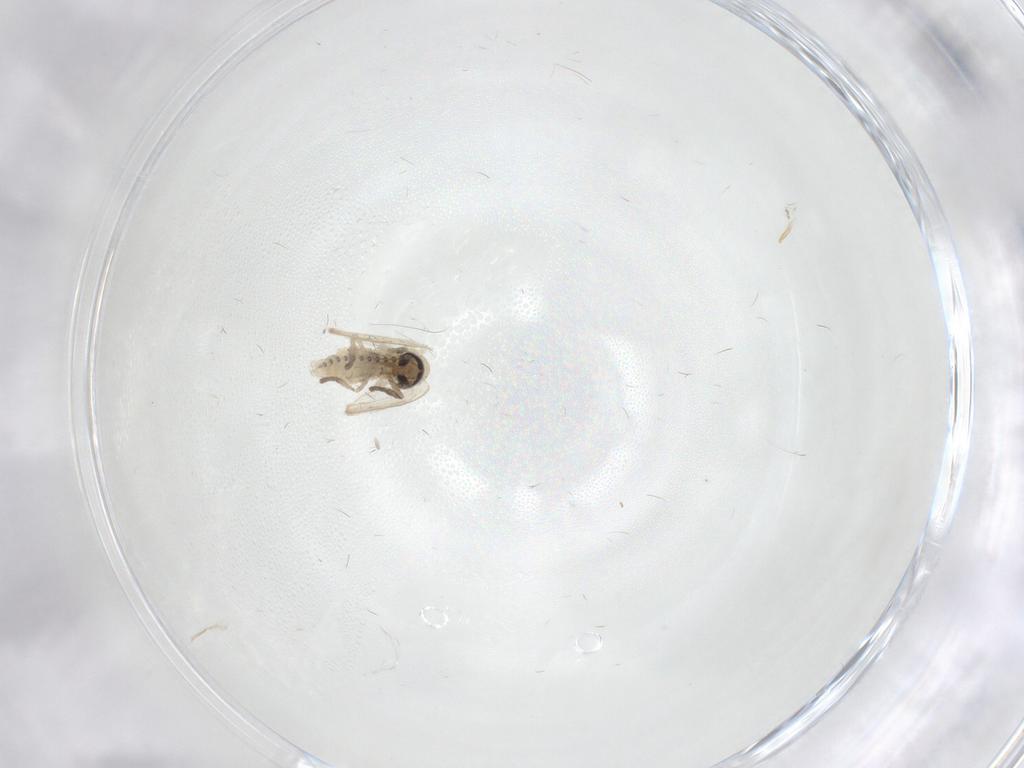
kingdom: Animalia
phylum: Arthropoda
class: Insecta
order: Diptera
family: Psychodidae
